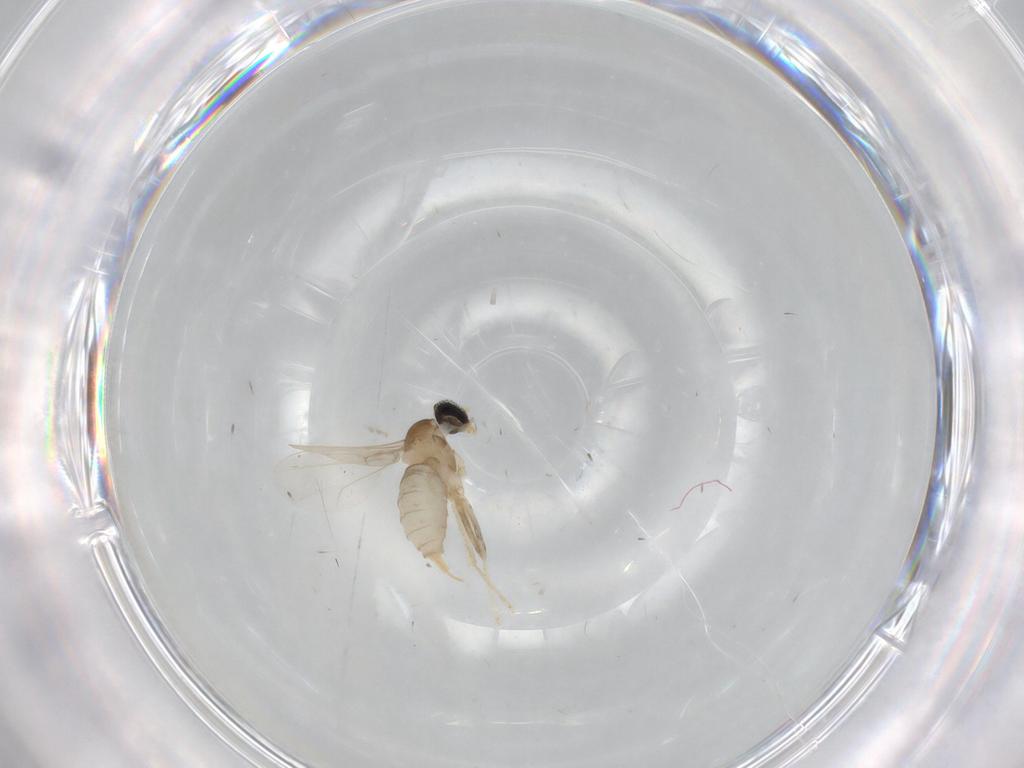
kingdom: Animalia
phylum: Arthropoda
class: Insecta
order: Diptera
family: Cecidomyiidae
